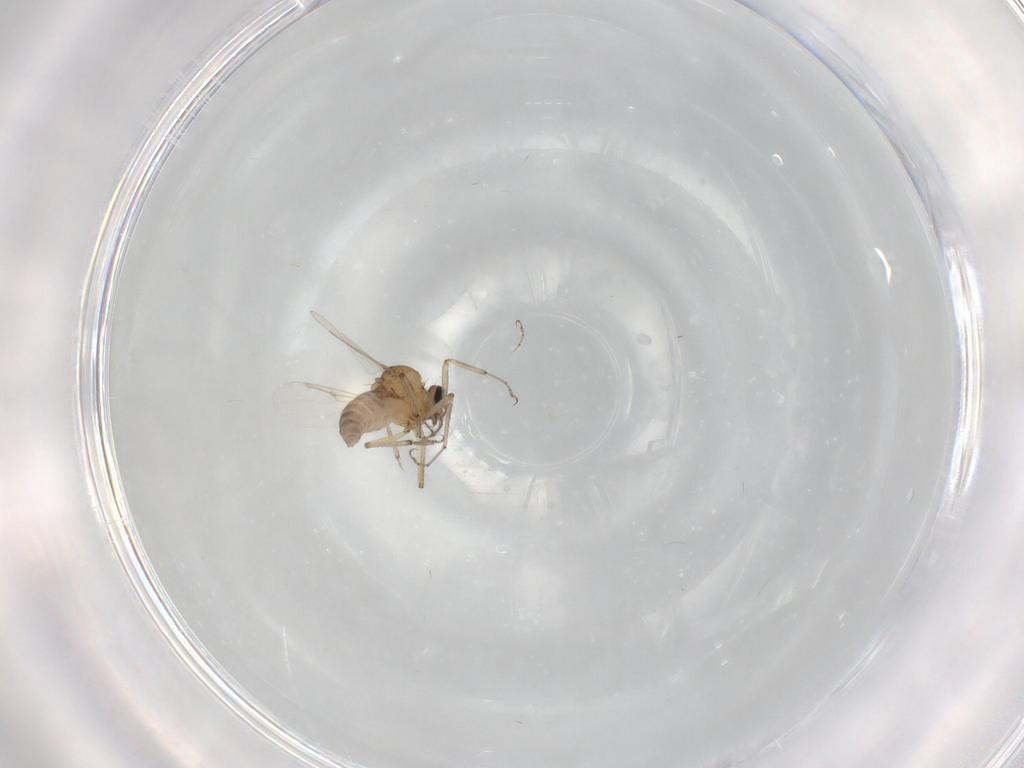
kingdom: Animalia
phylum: Arthropoda
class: Insecta
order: Diptera
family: Ceratopogonidae
